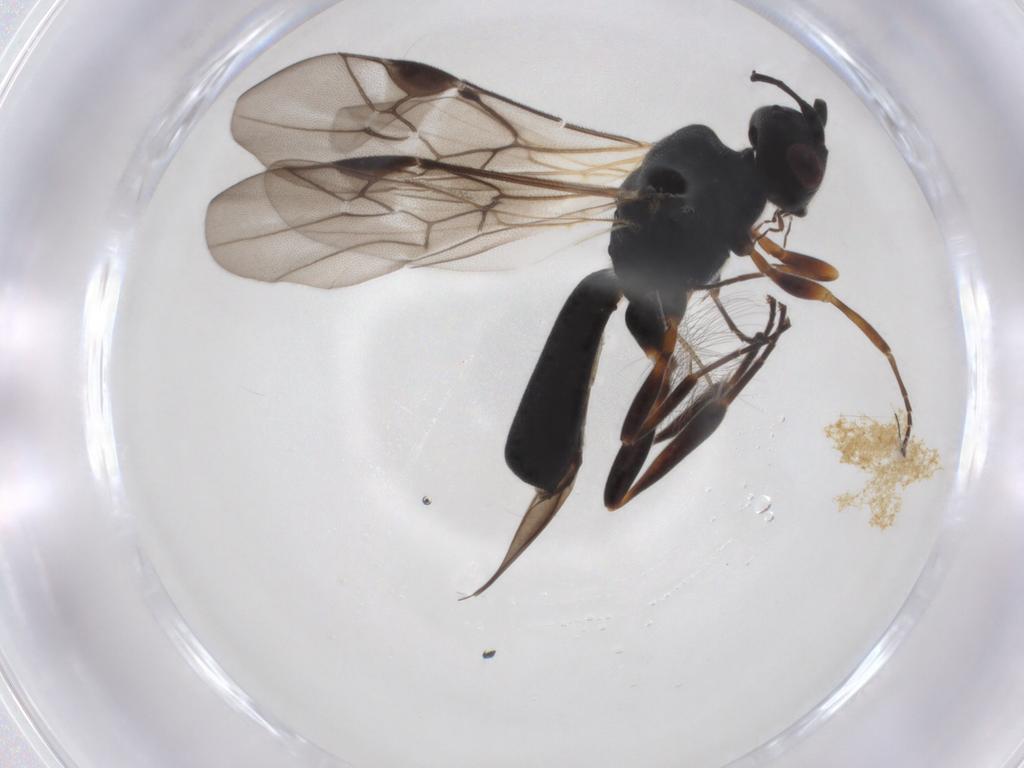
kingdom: Animalia
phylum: Arthropoda
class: Insecta
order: Hymenoptera
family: Braconidae
